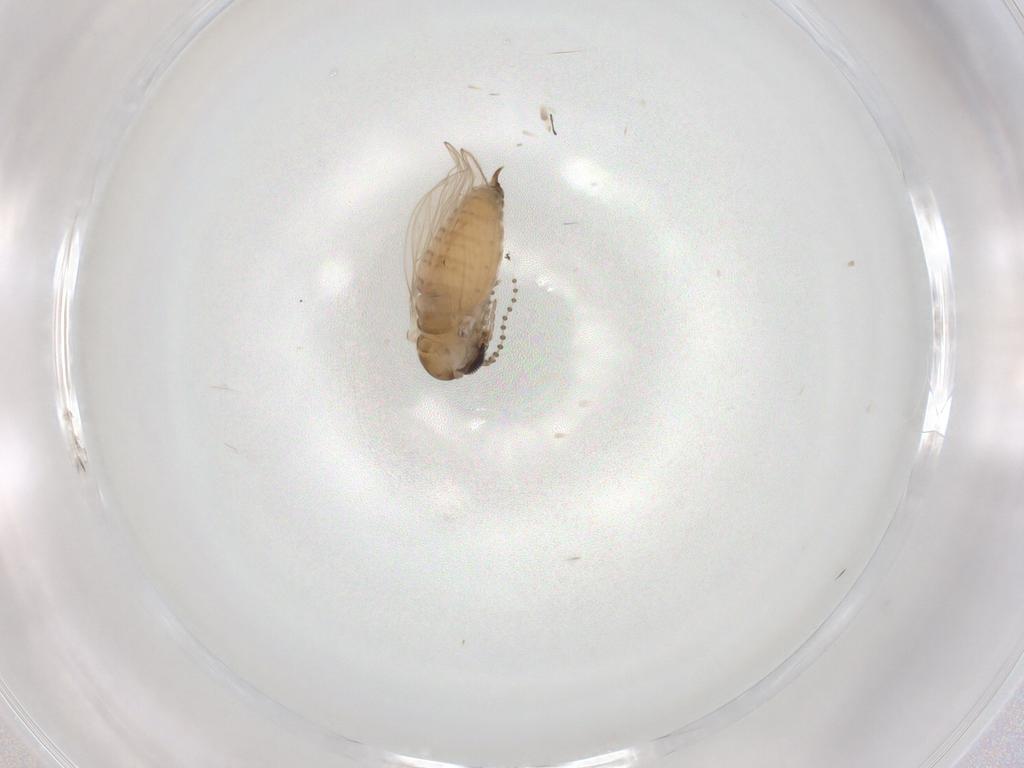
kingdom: Animalia
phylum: Arthropoda
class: Insecta
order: Diptera
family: Psychodidae
